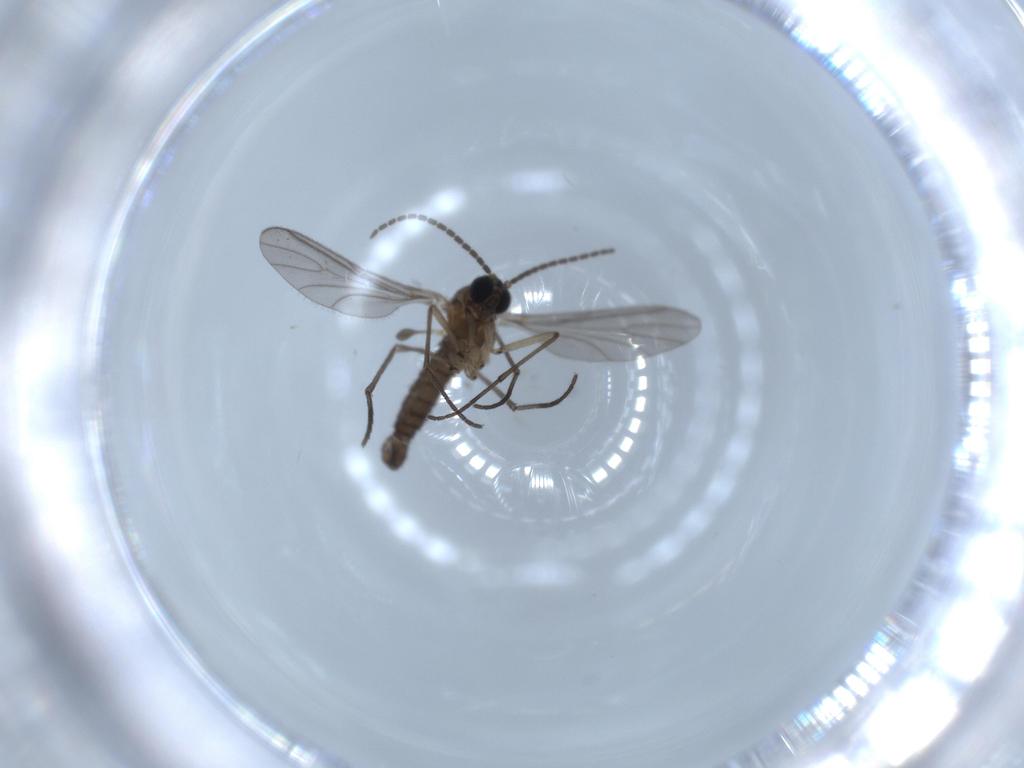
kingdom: Animalia
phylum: Arthropoda
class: Insecta
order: Diptera
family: Sciaridae
